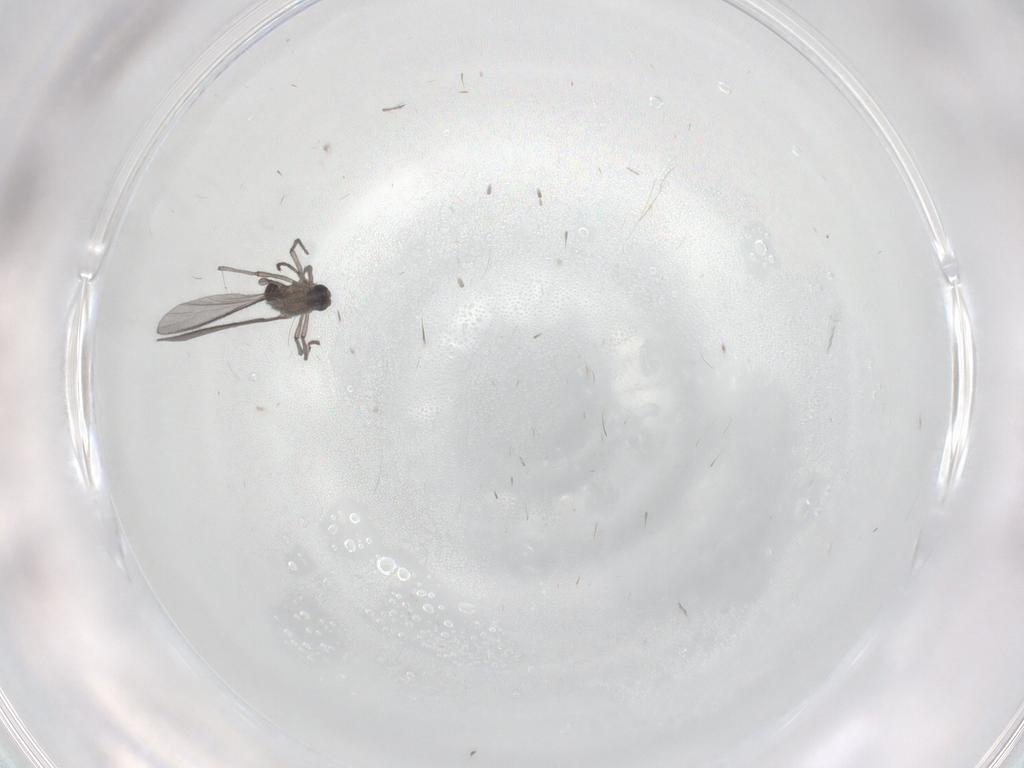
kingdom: Animalia
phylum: Arthropoda
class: Insecta
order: Diptera
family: Sciaridae
